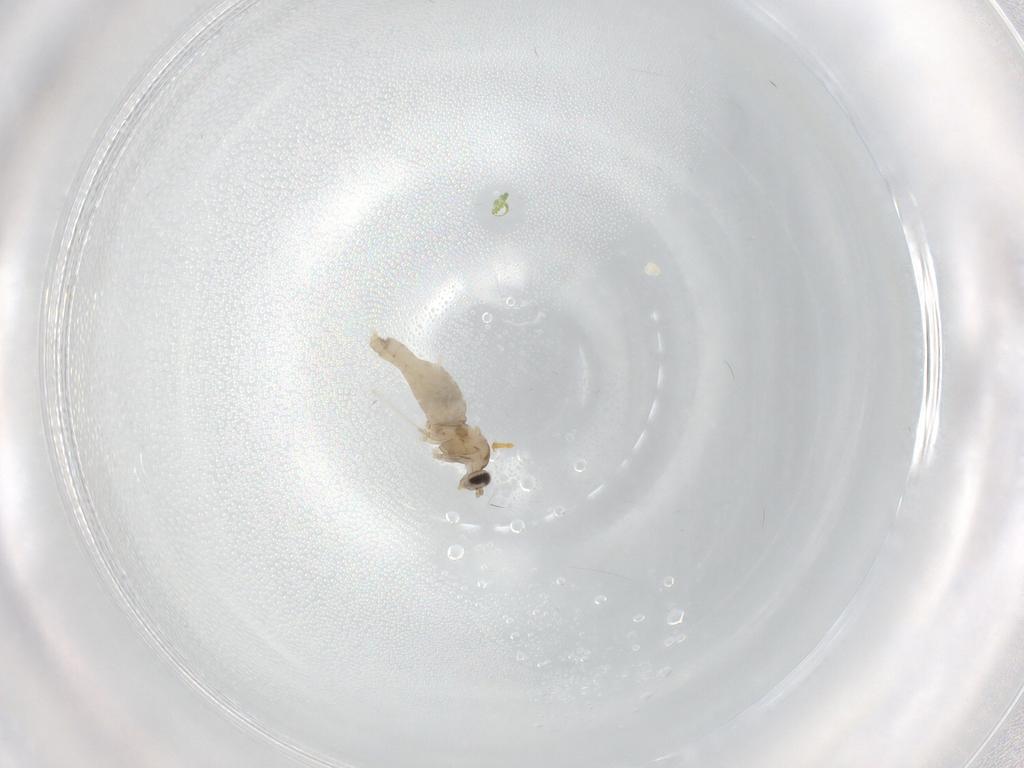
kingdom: Animalia
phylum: Arthropoda
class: Insecta
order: Diptera
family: Cecidomyiidae
